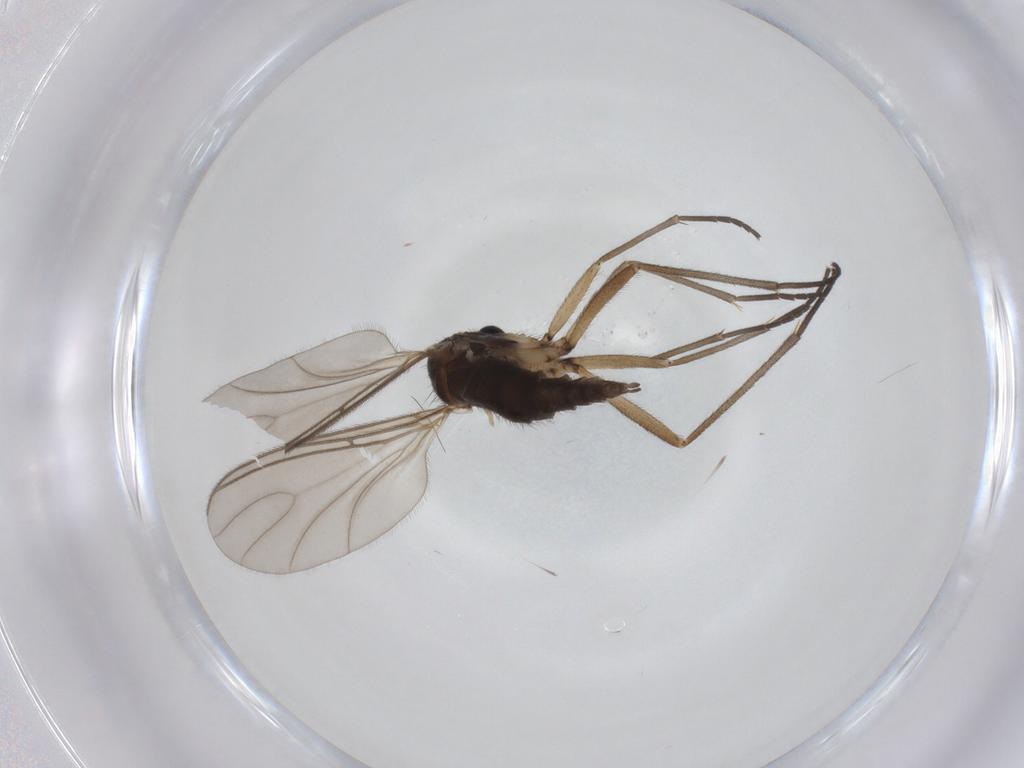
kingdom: Animalia
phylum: Arthropoda
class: Insecta
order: Diptera
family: Sciaridae
